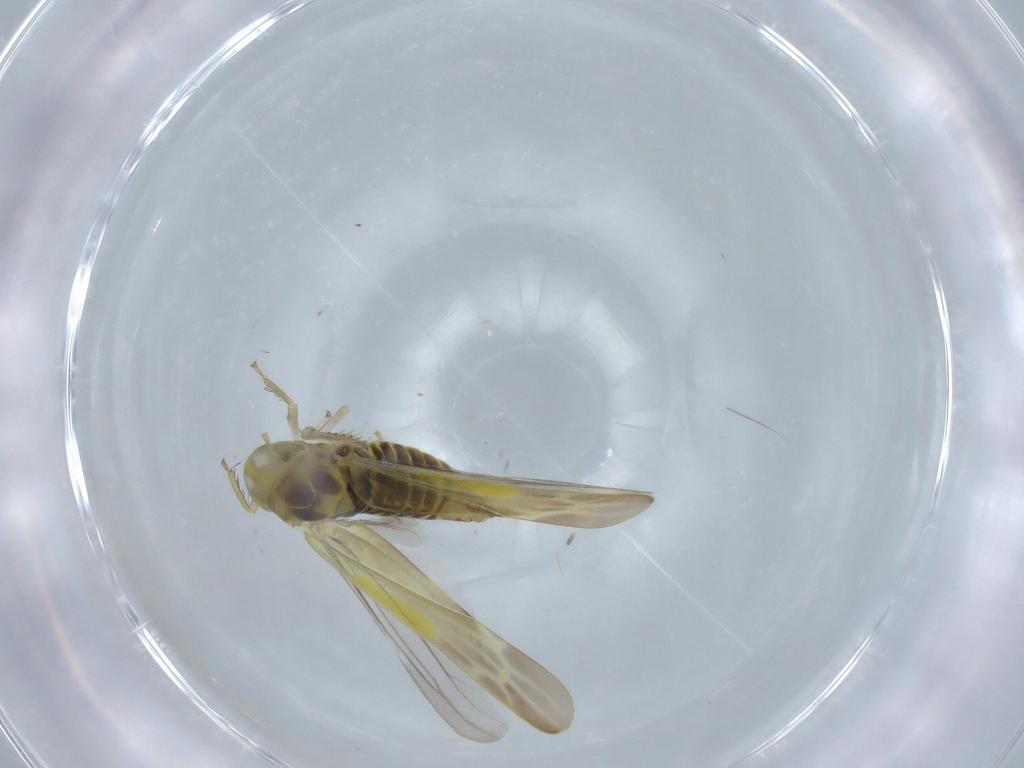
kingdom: Animalia
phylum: Arthropoda
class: Insecta
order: Hemiptera
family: Cicadellidae
